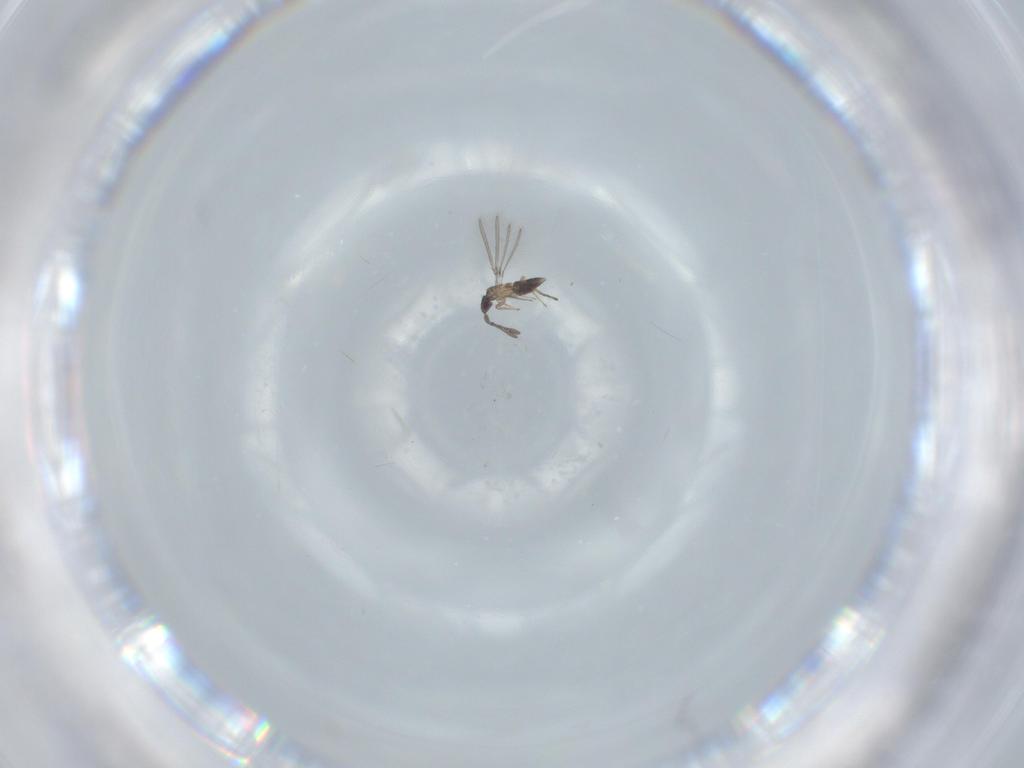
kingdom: Animalia
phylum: Arthropoda
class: Insecta
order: Hymenoptera
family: Mymaridae
